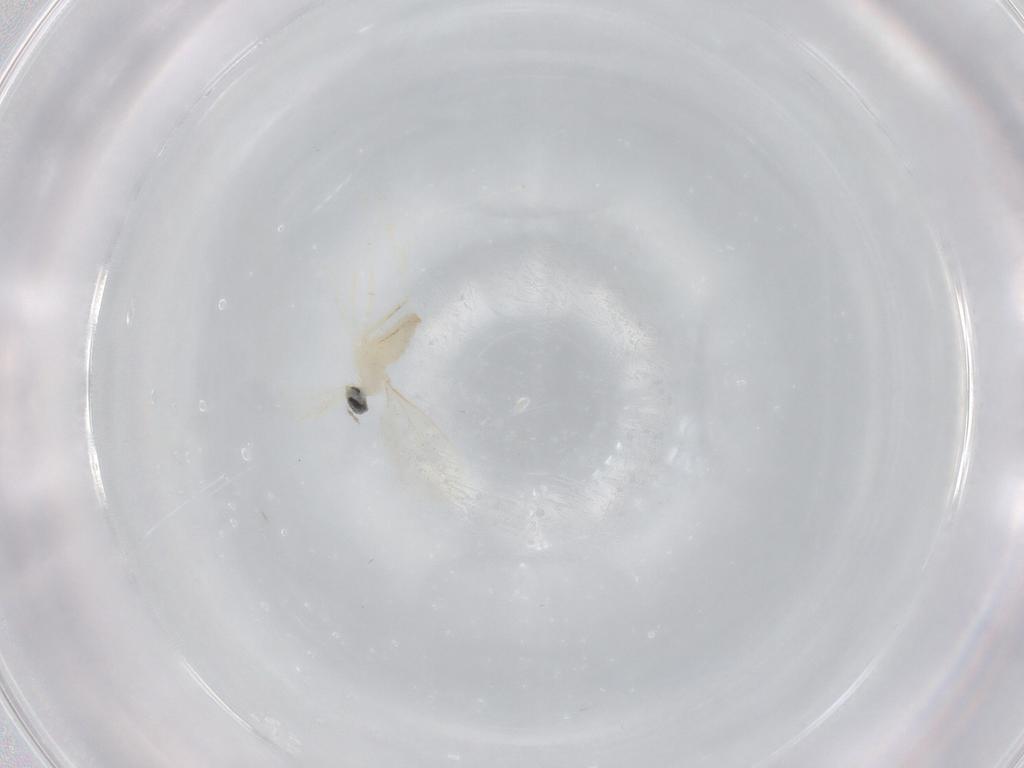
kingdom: Animalia
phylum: Arthropoda
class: Insecta
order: Diptera
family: Cecidomyiidae
